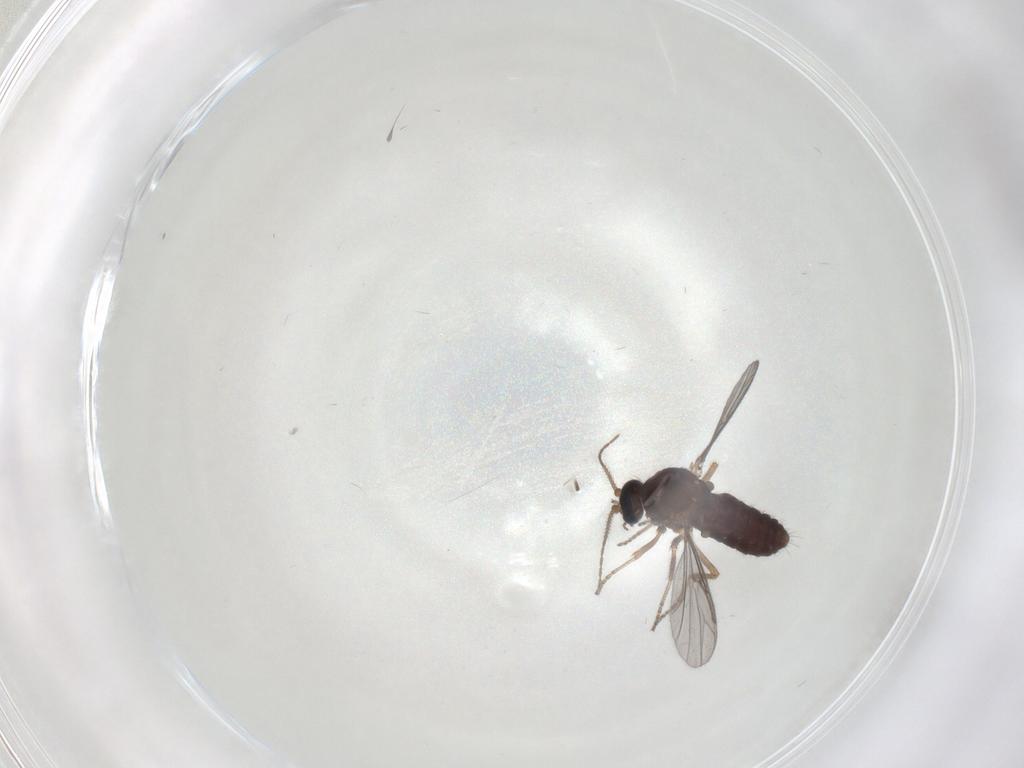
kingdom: Animalia
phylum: Arthropoda
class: Insecta
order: Diptera
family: Ceratopogonidae
